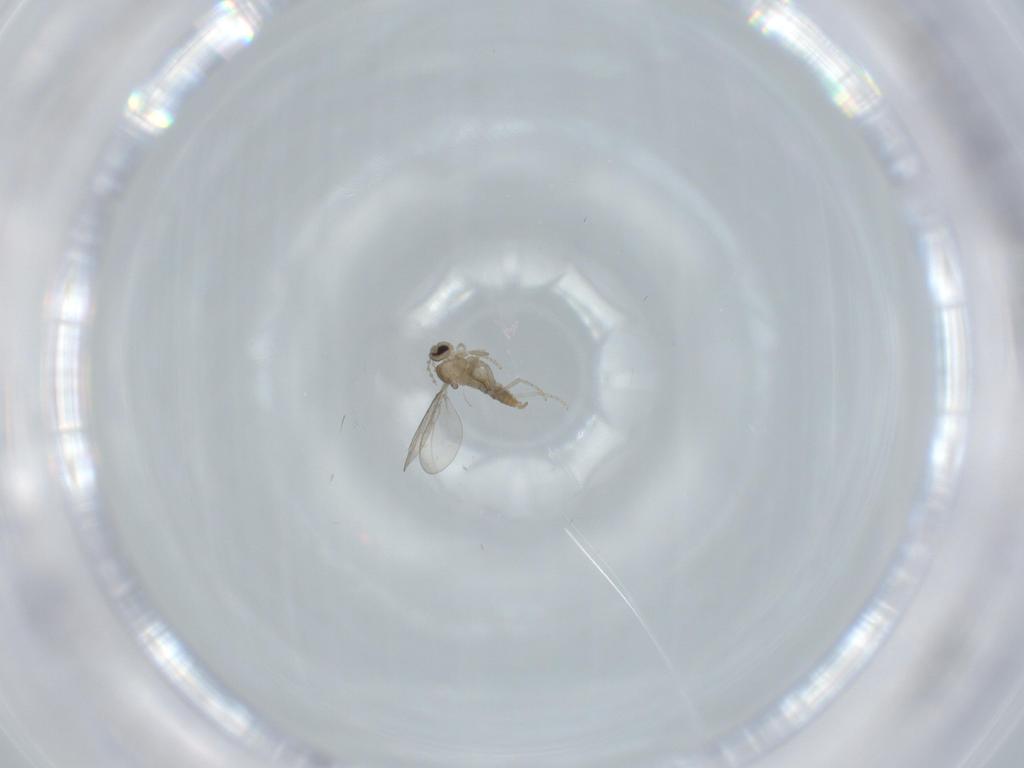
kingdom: Animalia
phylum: Arthropoda
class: Insecta
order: Diptera
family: Cecidomyiidae
